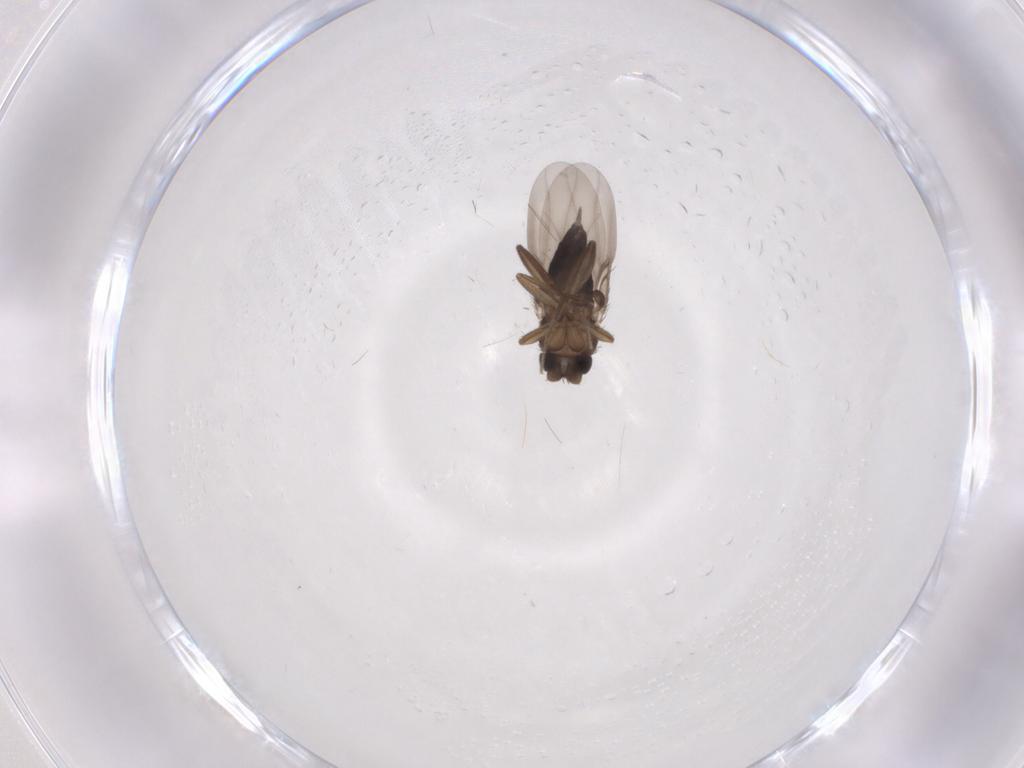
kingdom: Animalia
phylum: Arthropoda
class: Insecta
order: Diptera
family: Phoridae
